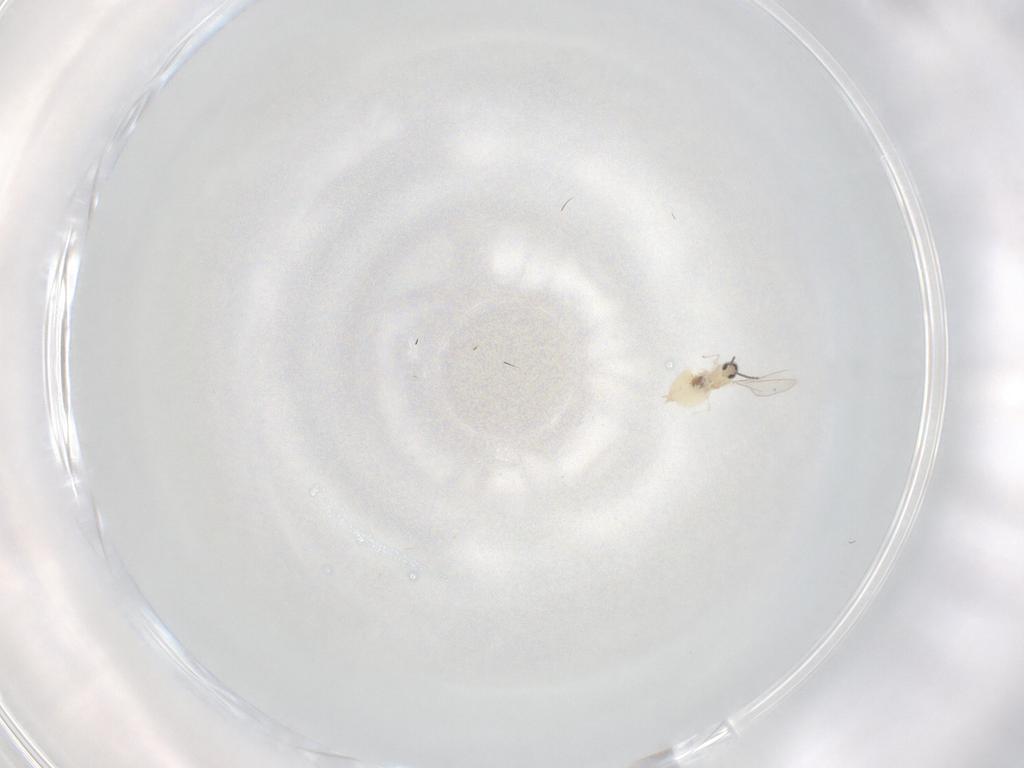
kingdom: Animalia
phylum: Arthropoda
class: Insecta
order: Diptera
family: Cecidomyiidae
